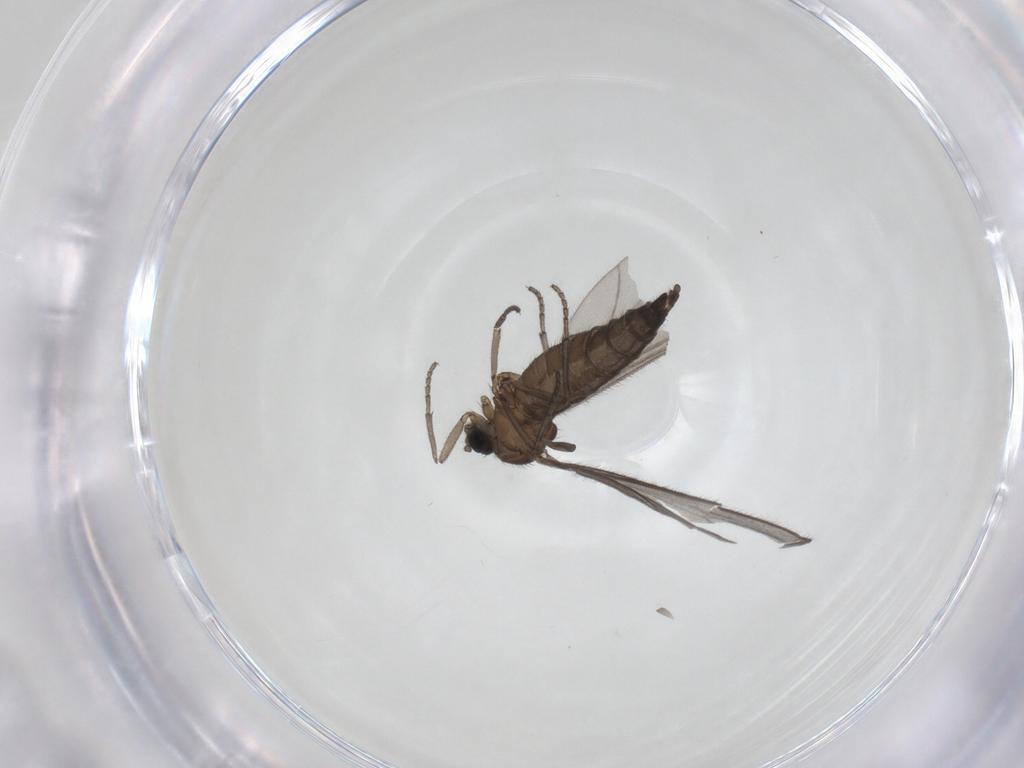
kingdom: Animalia
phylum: Arthropoda
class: Insecta
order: Diptera
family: Sciaridae
